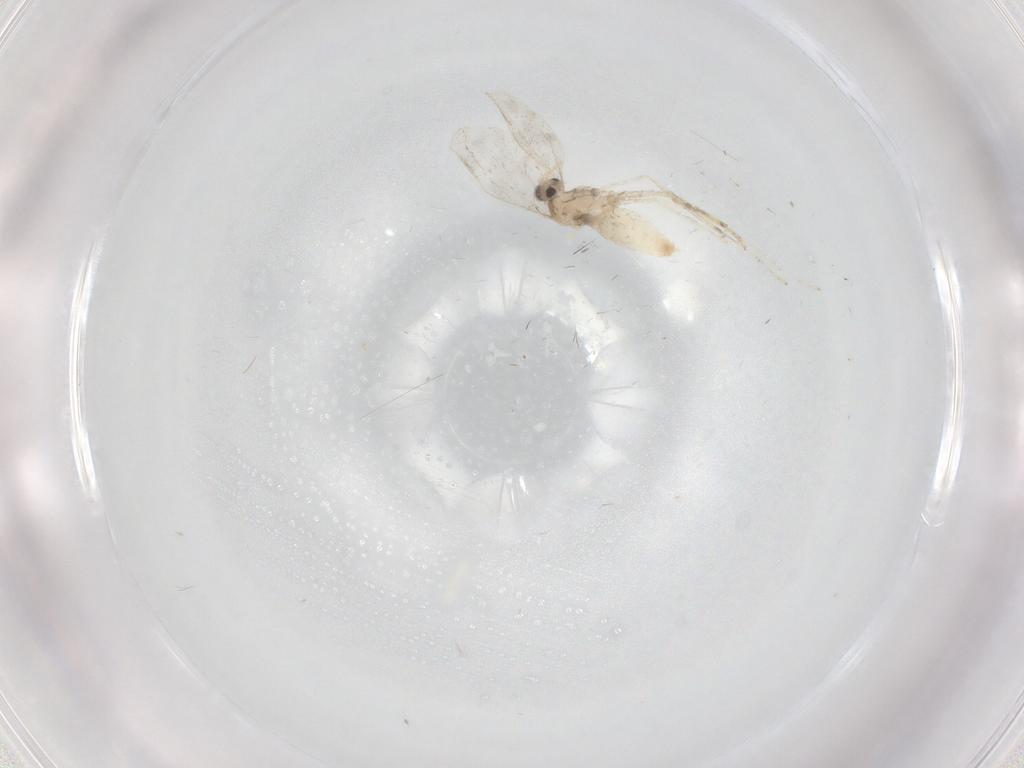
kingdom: Animalia
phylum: Arthropoda
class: Insecta
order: Diptera
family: Cecidomyiidae
